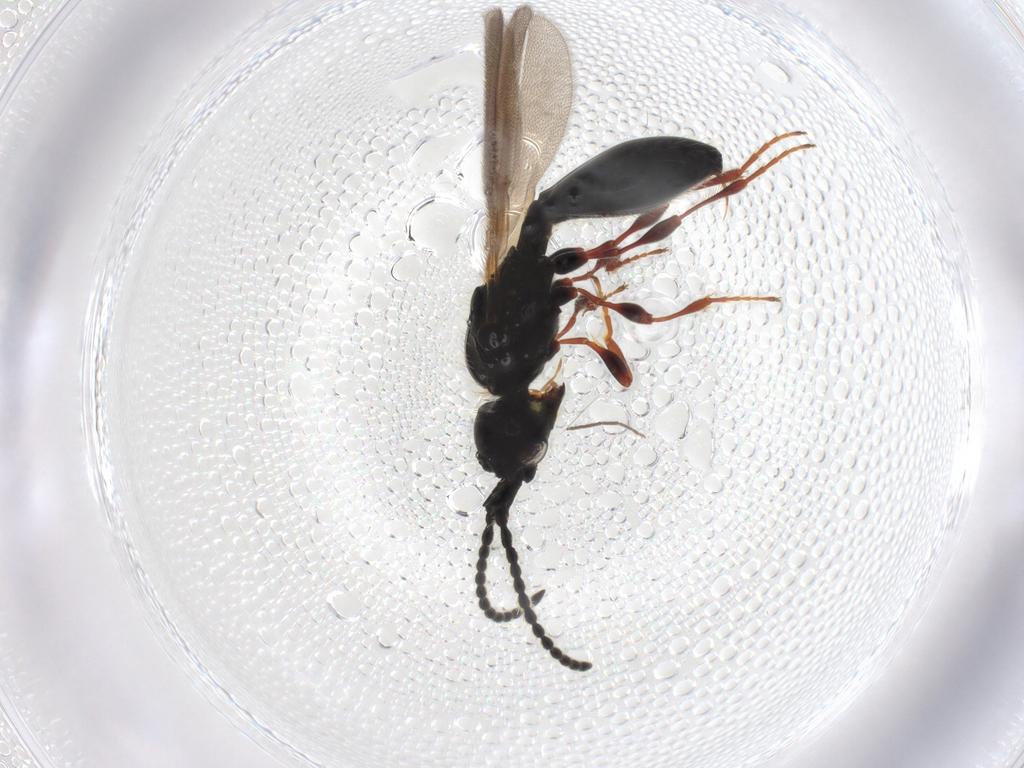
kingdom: Animalia
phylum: Arthropoda
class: Insecta
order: Hymenoptera
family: Diapriidae
